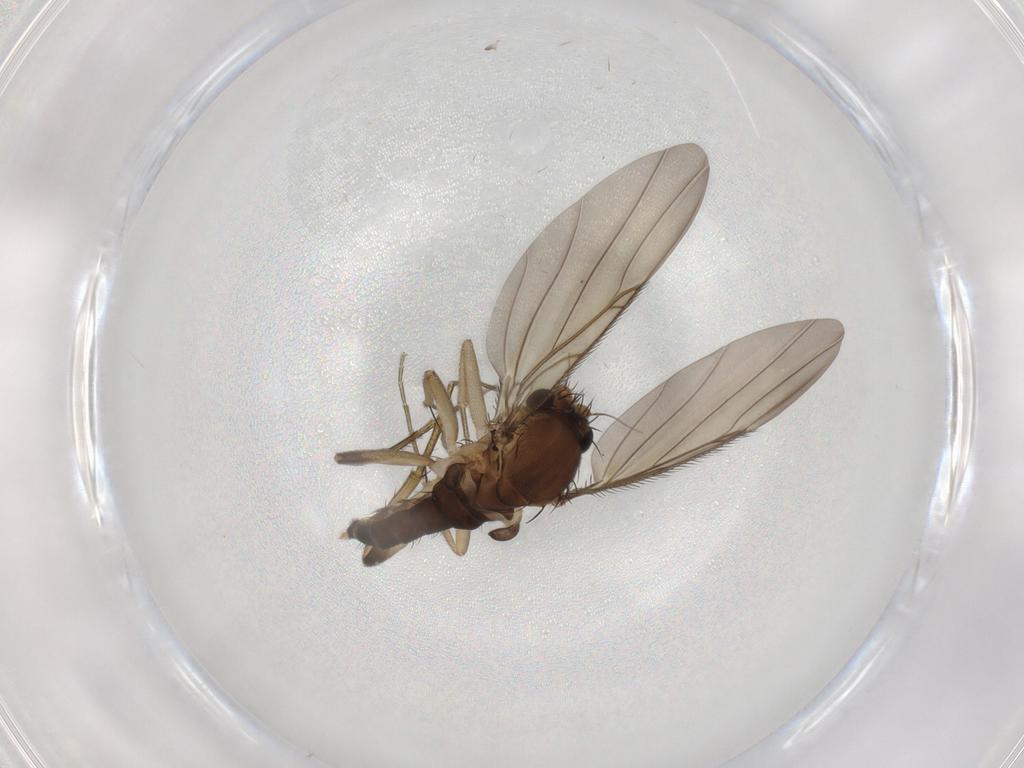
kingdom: Animalia
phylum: Arthropoda
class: Insecta
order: Diptera
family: Phoridae
